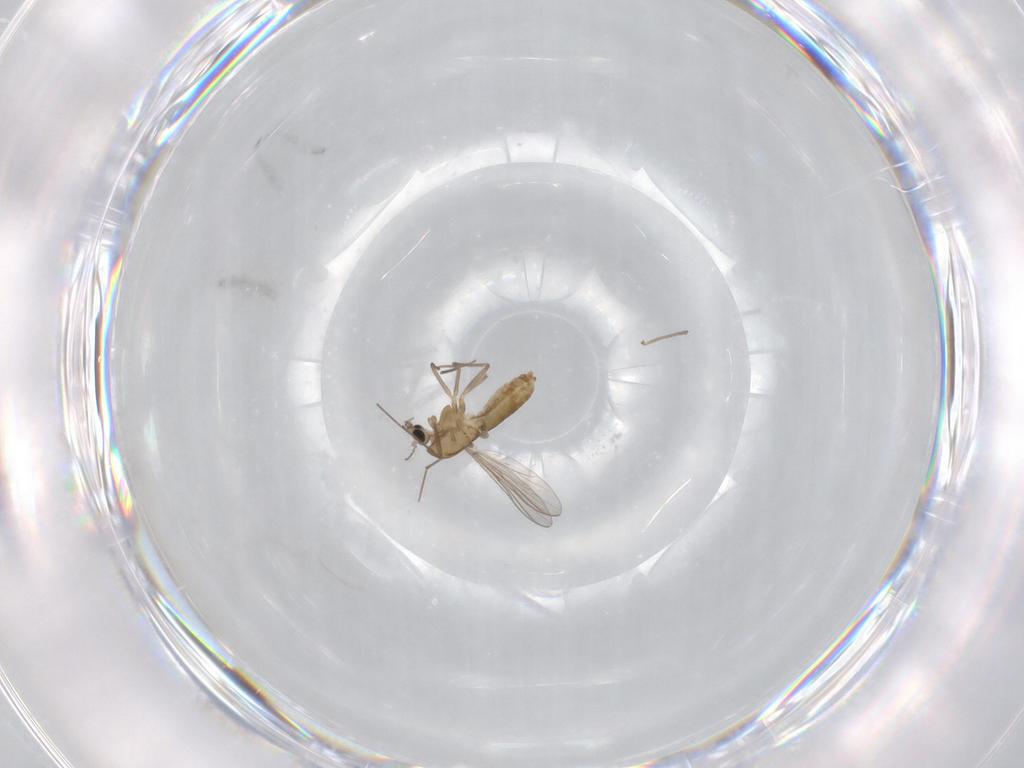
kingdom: Animalia
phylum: Arthropoda
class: Insecta
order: Diptera
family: Chironomidae
